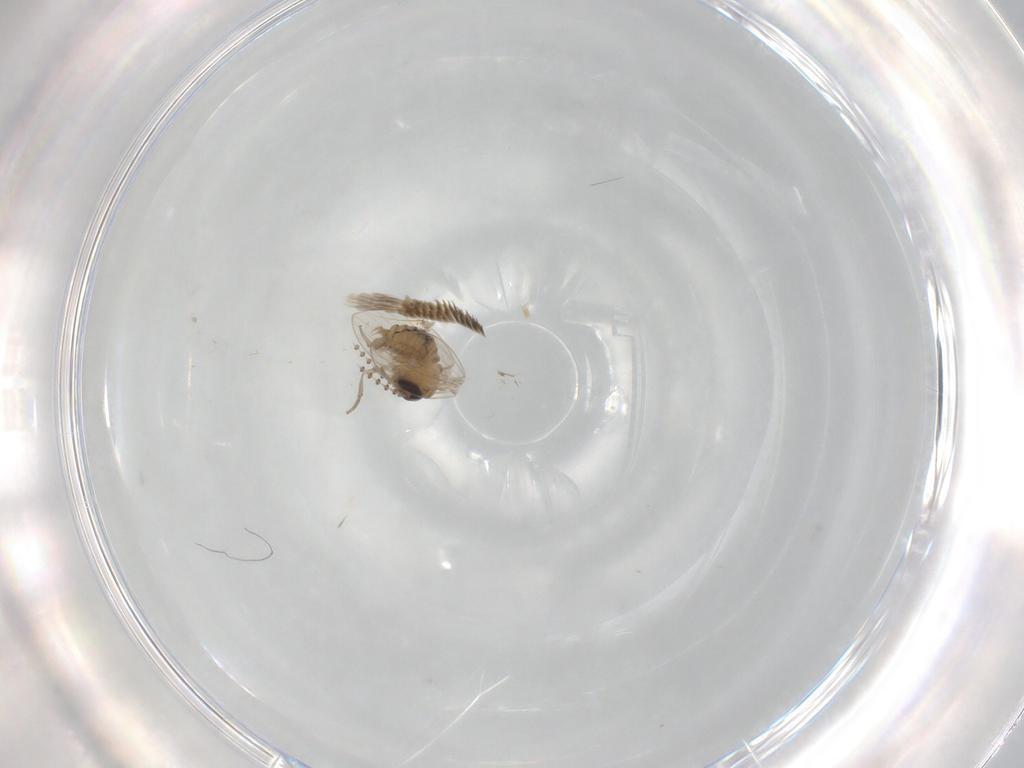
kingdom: Animalia
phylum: Arthropoda
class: Insecta
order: Diptera
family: Psychodidae
